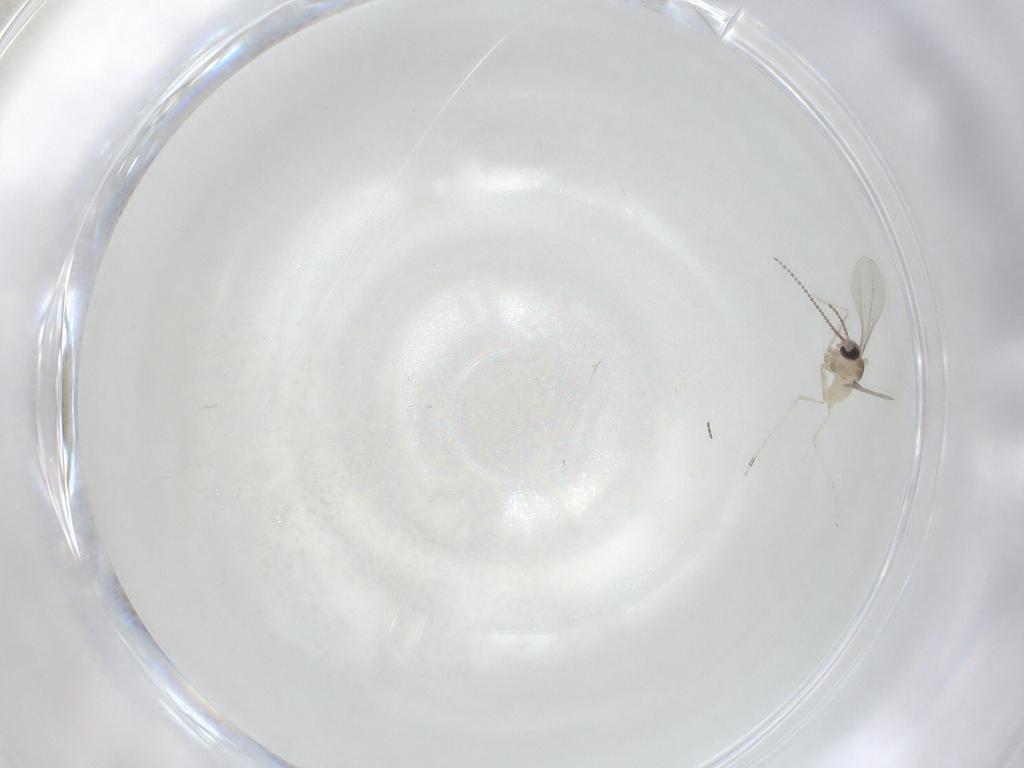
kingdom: Animalia
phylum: Arthropoda
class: Insecta
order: Diptera
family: Cecidomyiidae
